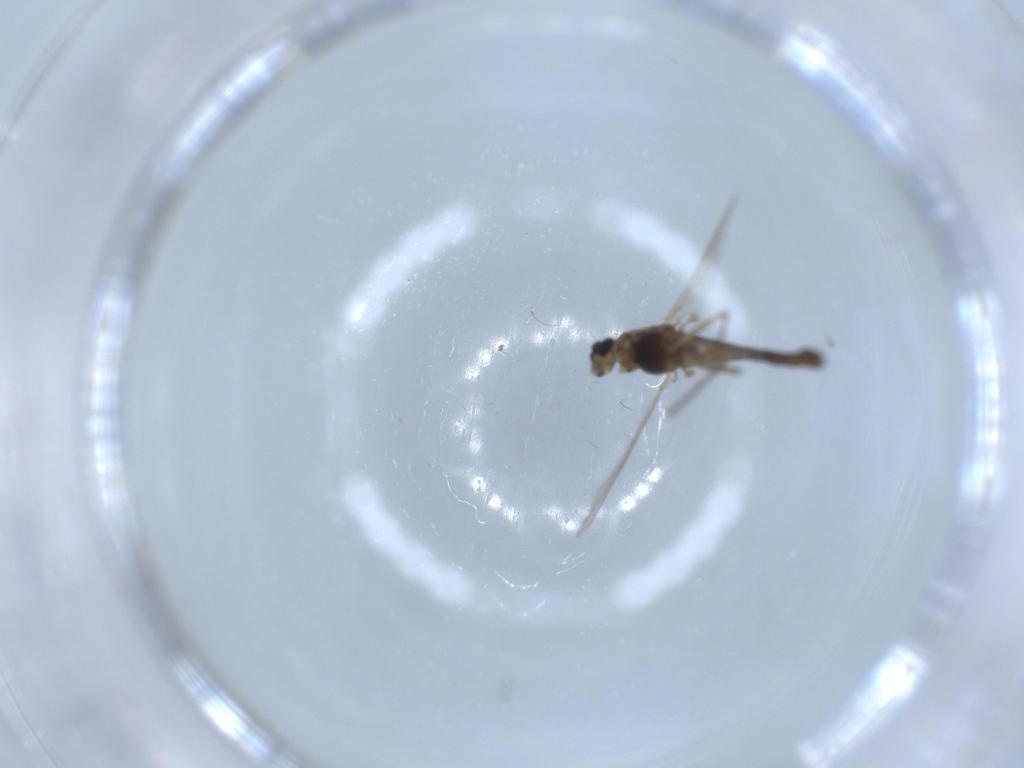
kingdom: Animalia
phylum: Arthropoda
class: Insecta
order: Diptera
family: Chironomidae
